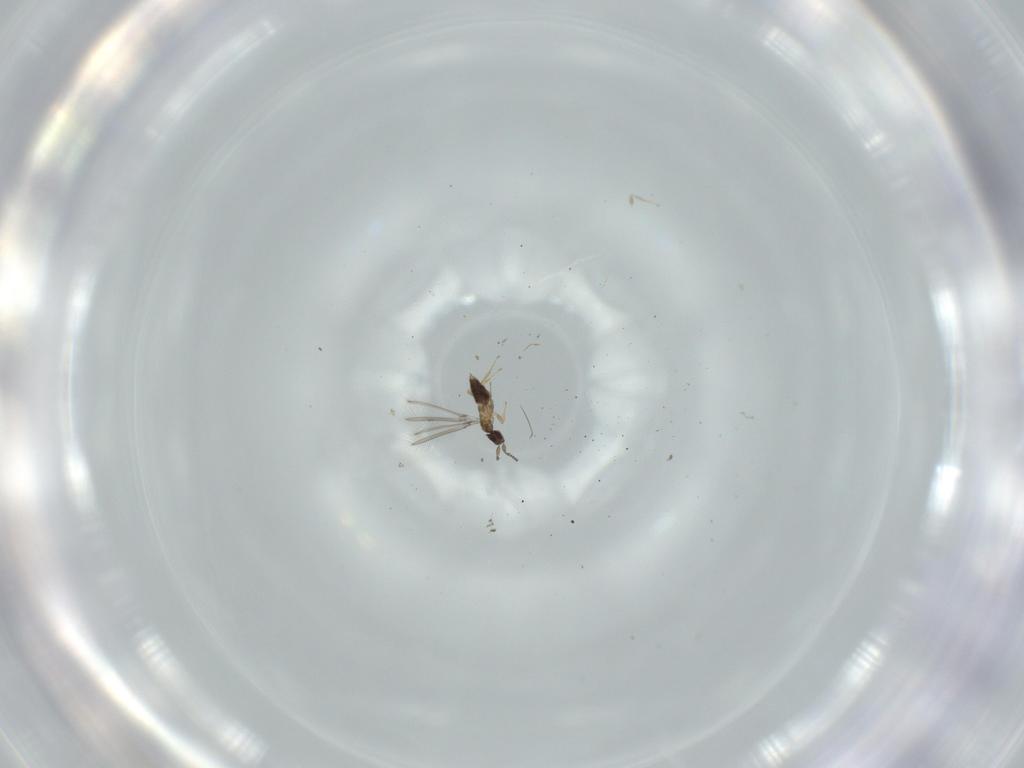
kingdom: Animalia
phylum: Arthropoda
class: Insecta
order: Hymenoptera
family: Mymaridae
